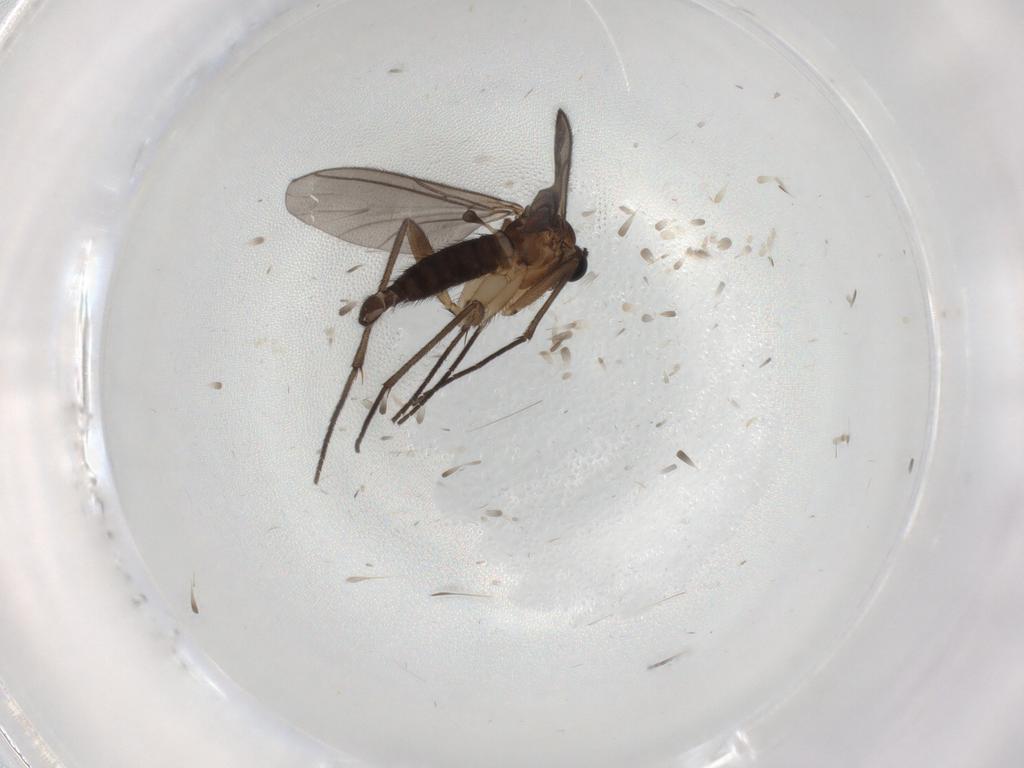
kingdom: Animalia
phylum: Arthropoda
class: Insecta
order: Diptera
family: Sciaridae
